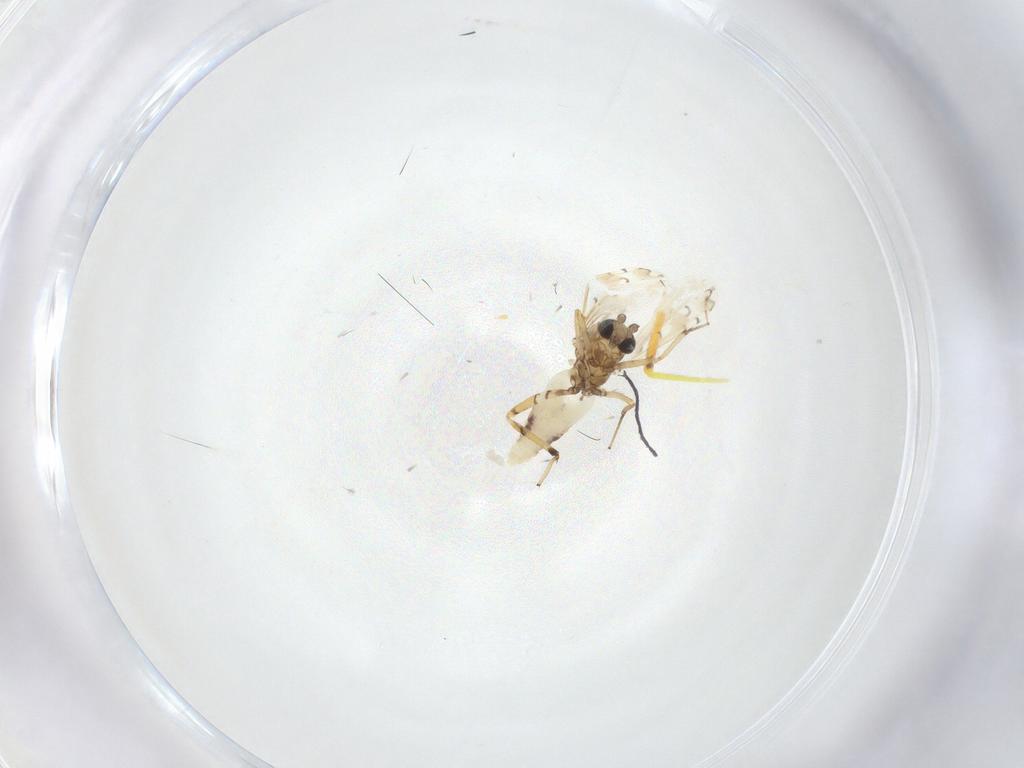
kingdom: Animalia
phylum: Arthropoda
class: Insecta
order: Diptera
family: Ceratopogonidae
